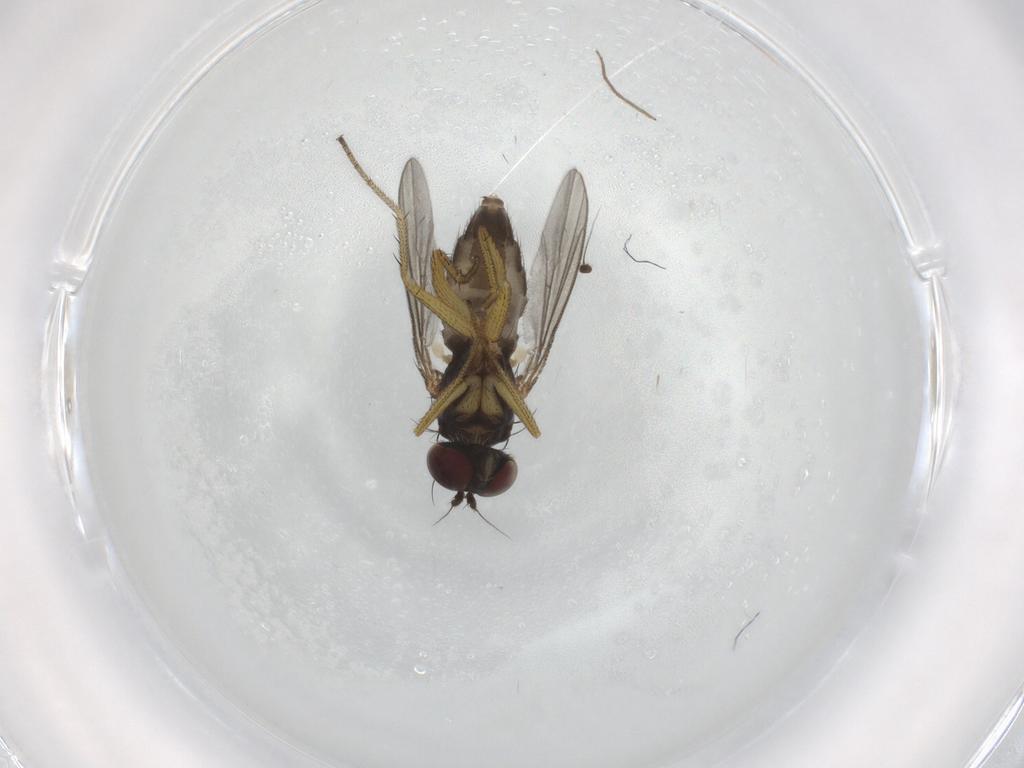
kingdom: Animalia
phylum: Arthropoda
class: Insecta
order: Diptera
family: Dolichopodidae
